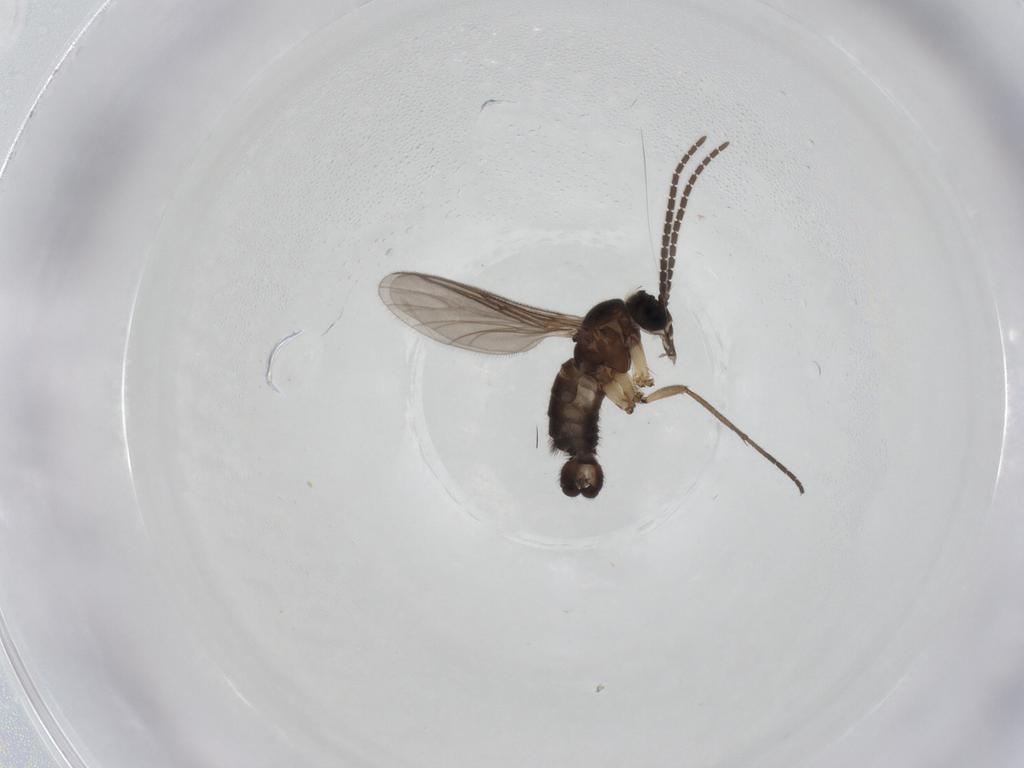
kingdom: Animalia
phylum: Arthropoda
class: Insecta
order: Diptera
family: Sciaridae
